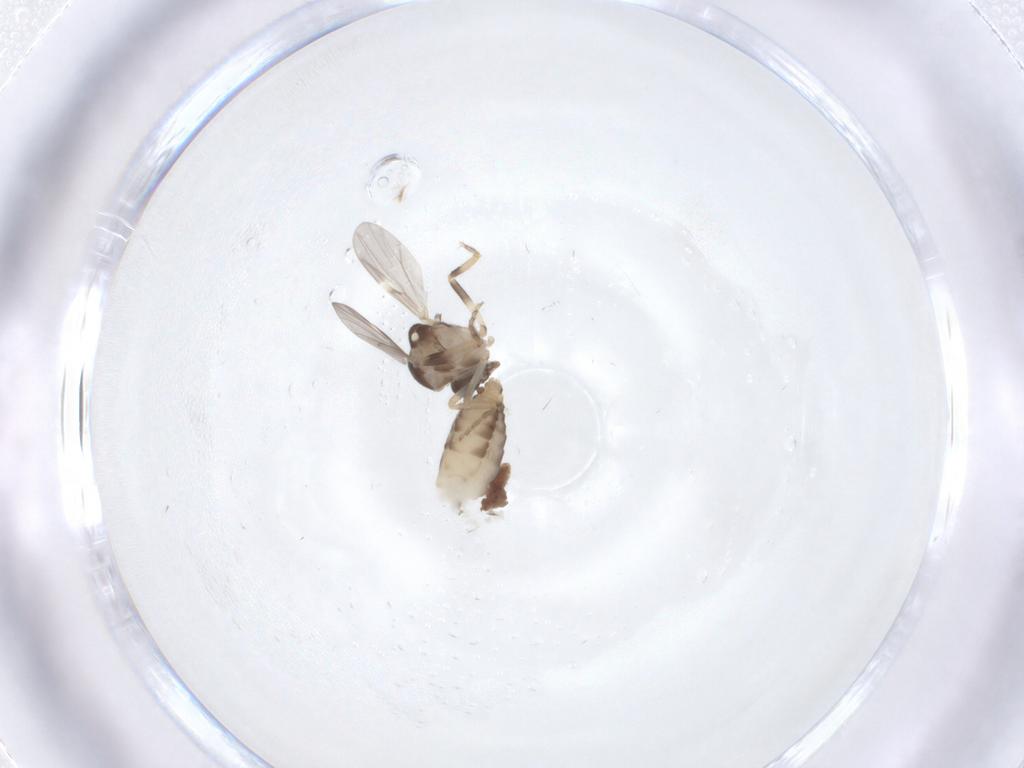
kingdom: Animalia
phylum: Arthropoda
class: Insecta
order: Diptera
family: Ceratopogonidae
